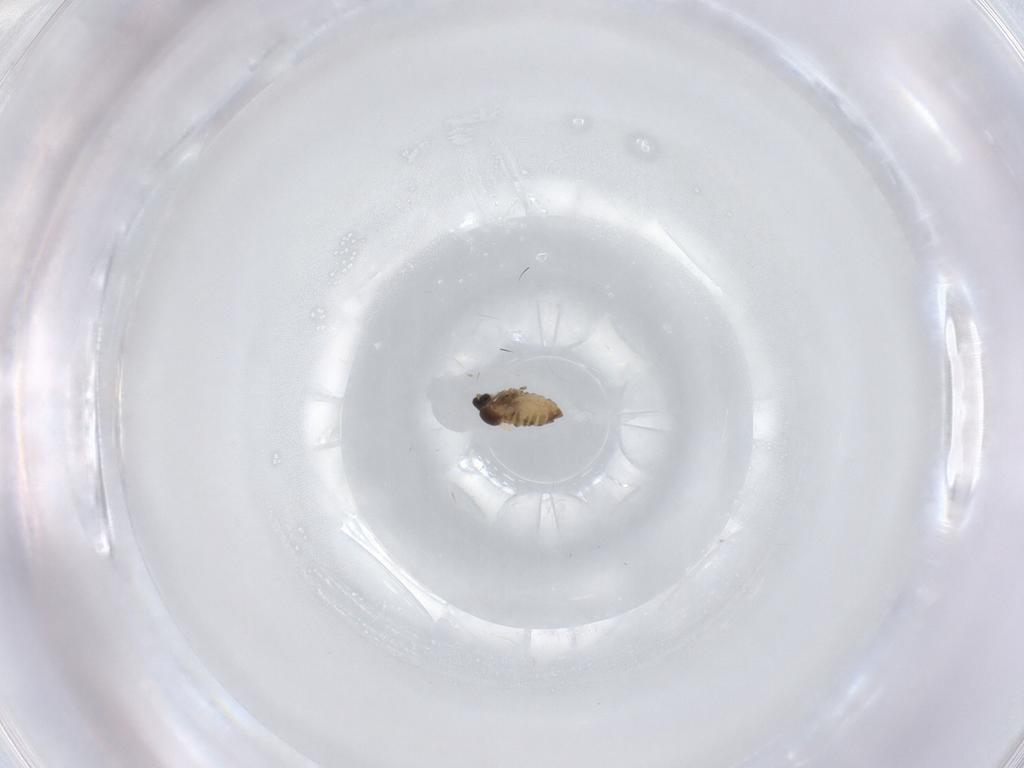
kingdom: Animalia
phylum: Arthropoda
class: Insecta
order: Diptera
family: Cecidomyiidae
